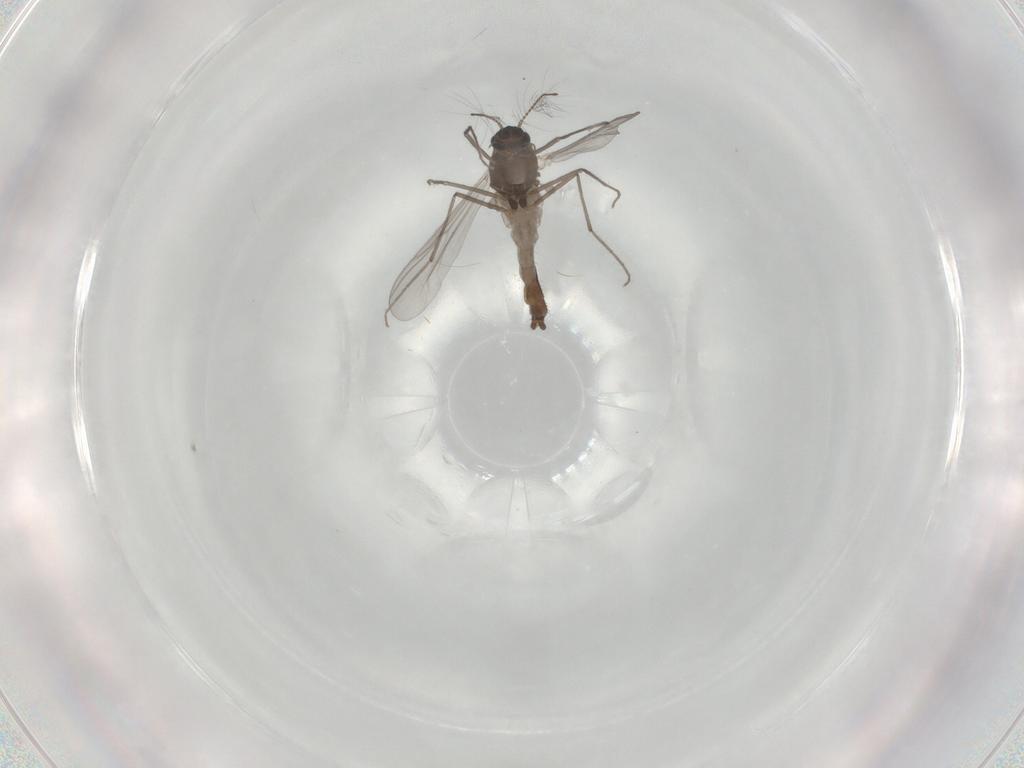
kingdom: Animalia
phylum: Arthropoda
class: Insecta
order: Diptera
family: Chironomidae
